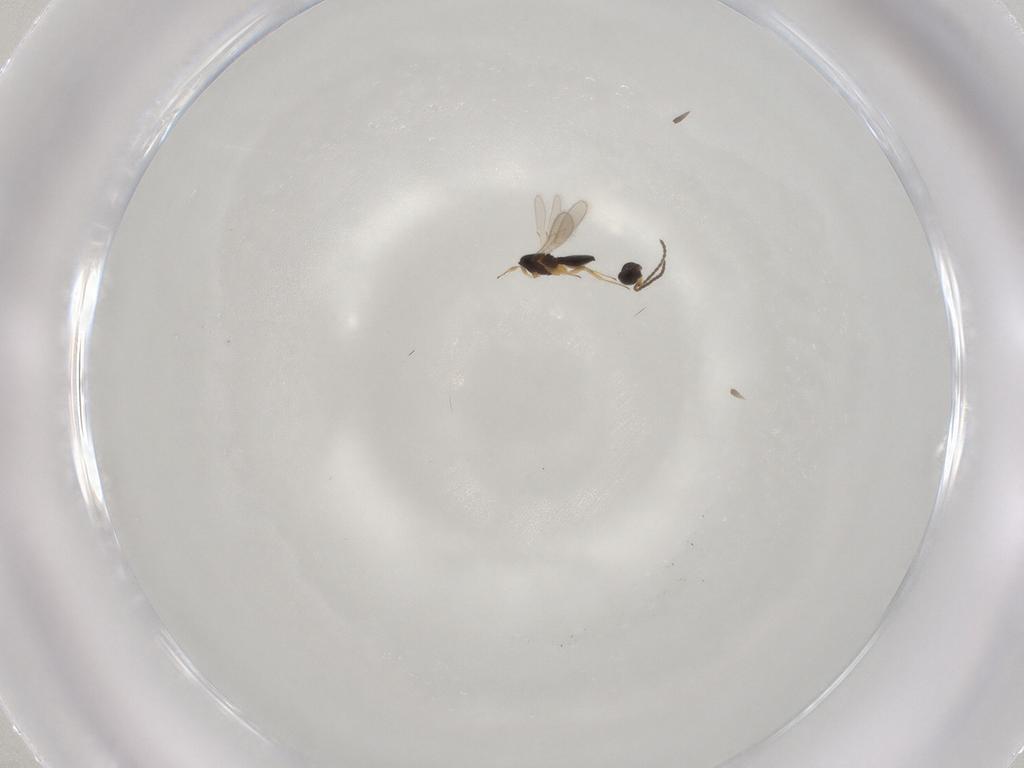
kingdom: Animalia
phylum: Arthropoda
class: Insecta
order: Hymenoptera
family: Scelionidae
